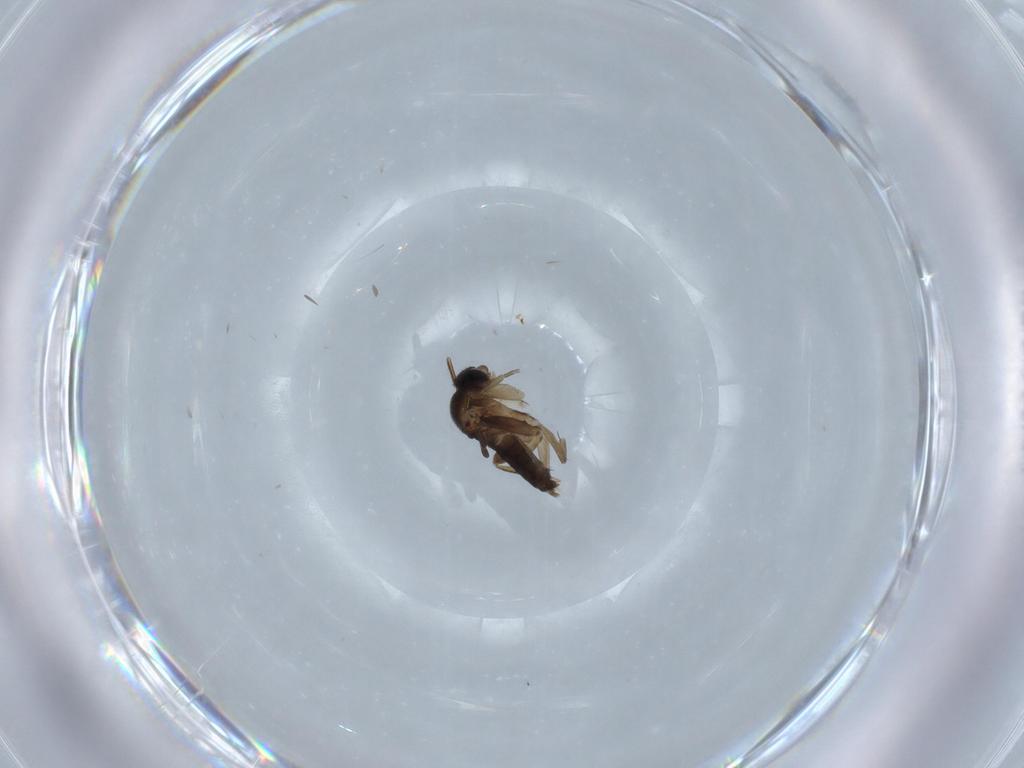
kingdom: Animalia
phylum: Arthropoda
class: Insecta
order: Diptera
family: Phoridae
